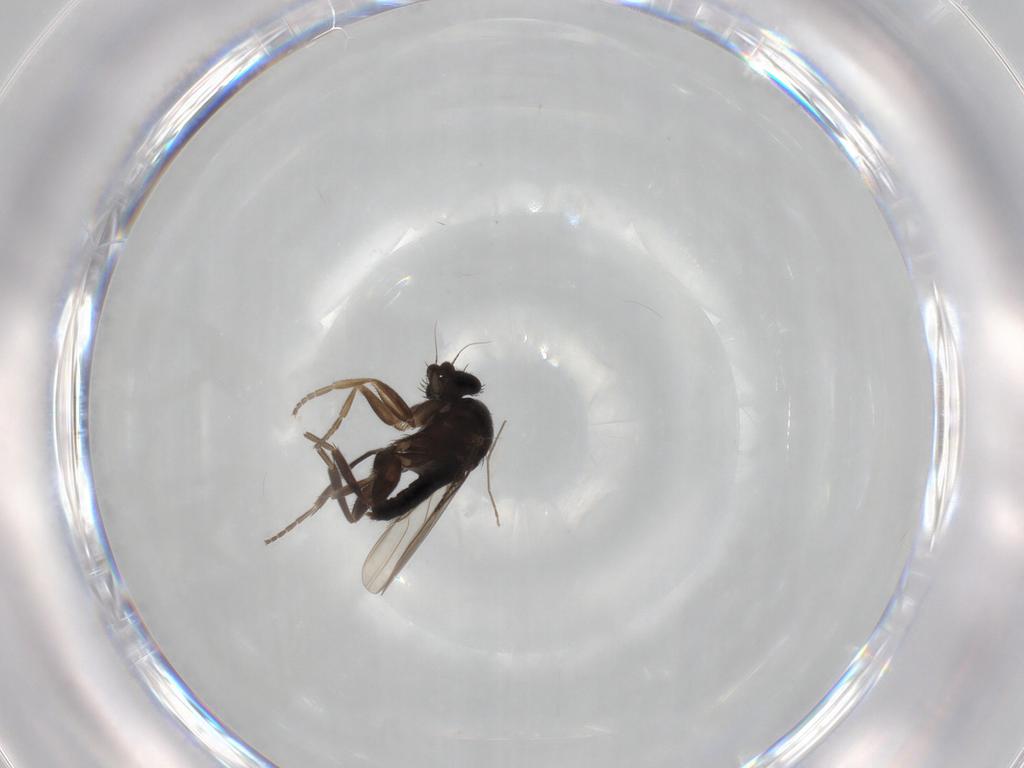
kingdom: Animalia
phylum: Arthropoda
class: Insecta
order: Diptera
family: Phoridae
